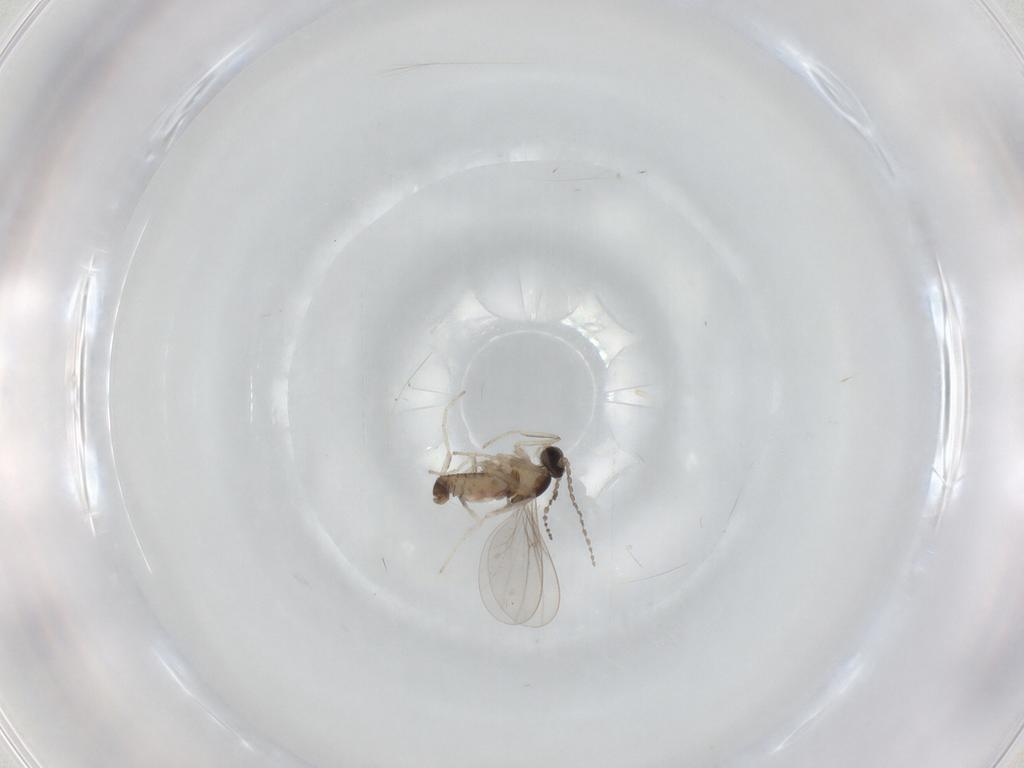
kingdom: Animalia
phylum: Arthropoda
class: Insecta
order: Diptera
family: Cecidomyiidae
